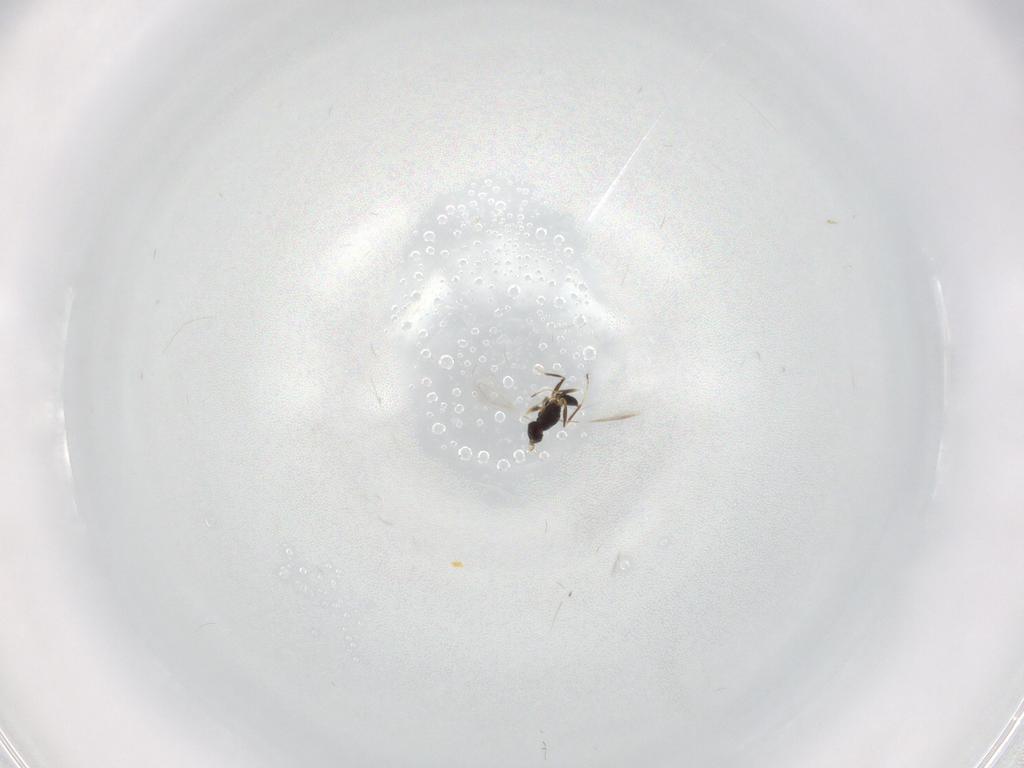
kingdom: Animalia
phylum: Arthropoda
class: Insecta
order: Hymenoptera
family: Mymaridae
